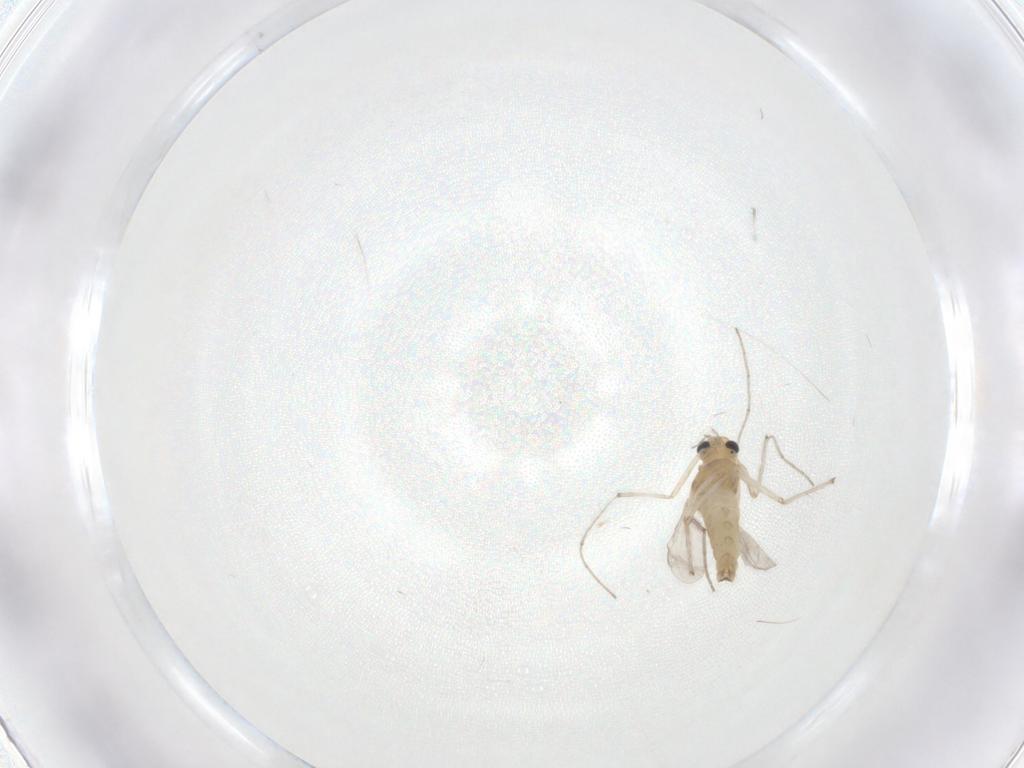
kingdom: Animalia
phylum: Arthropoda
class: Insecta
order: Diptera
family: Chironomidae
